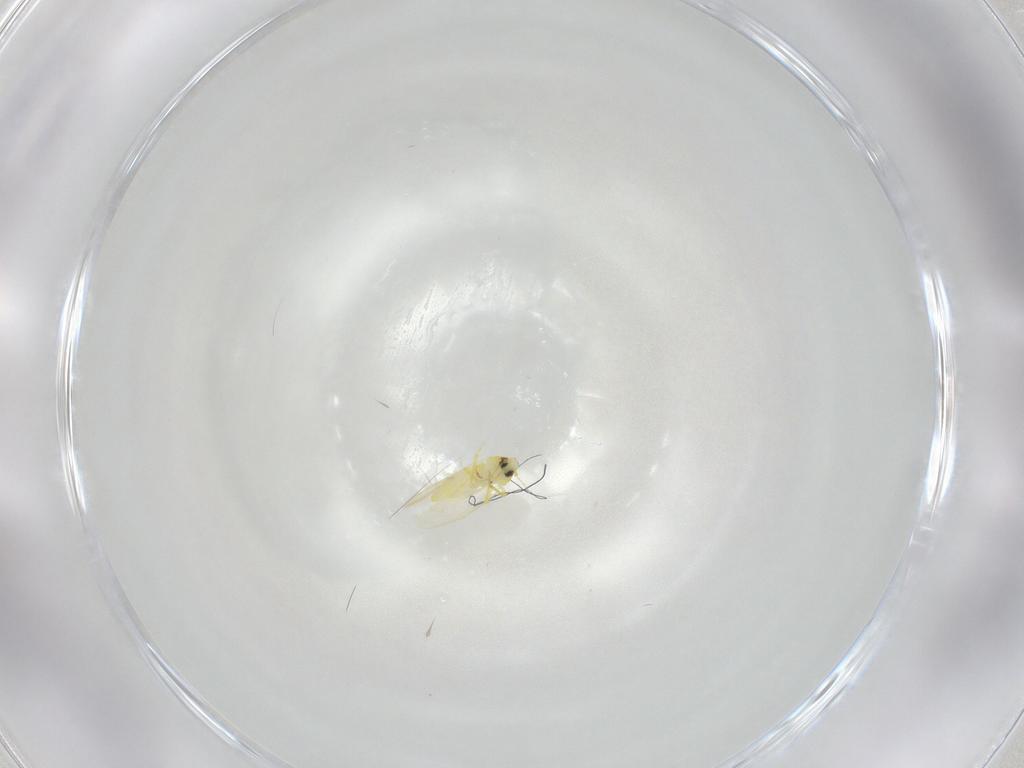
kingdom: Animalia
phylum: Arthropoda
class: Insecta
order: Hemiptera
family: Aleyrodidae
